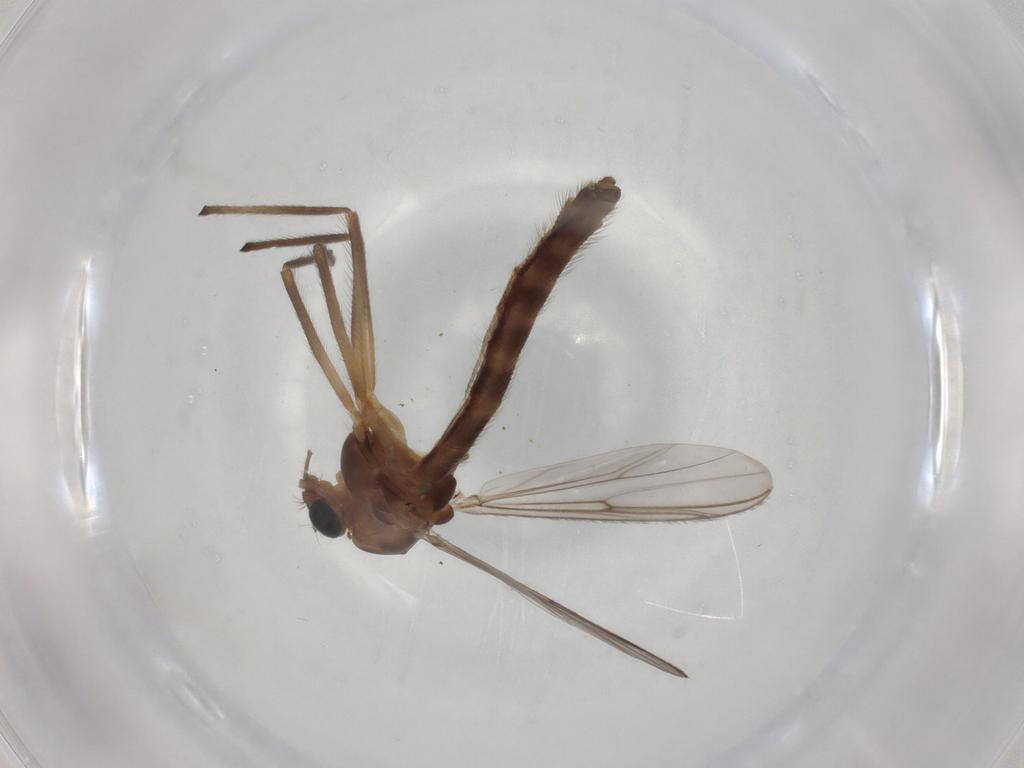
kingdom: Animalia
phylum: Arthropoda
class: Insecta
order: Diptera
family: Chironomidae
